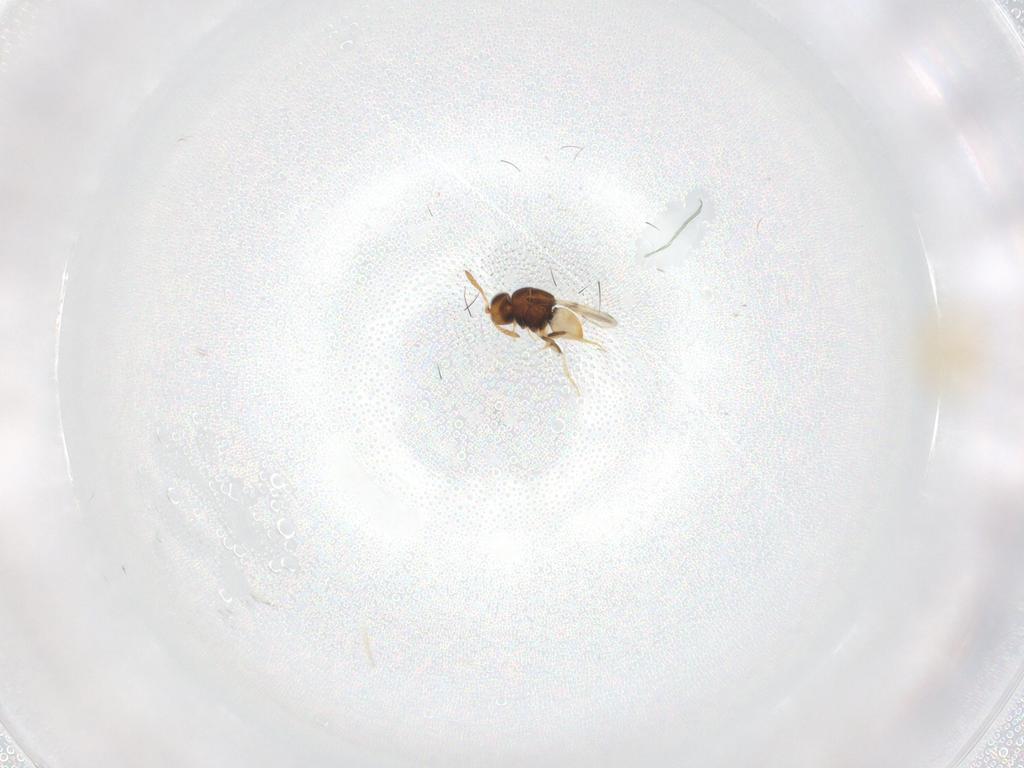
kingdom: Animalia
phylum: Arthropoda
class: Insecta
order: Hymenoptera
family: Encyrtidae
